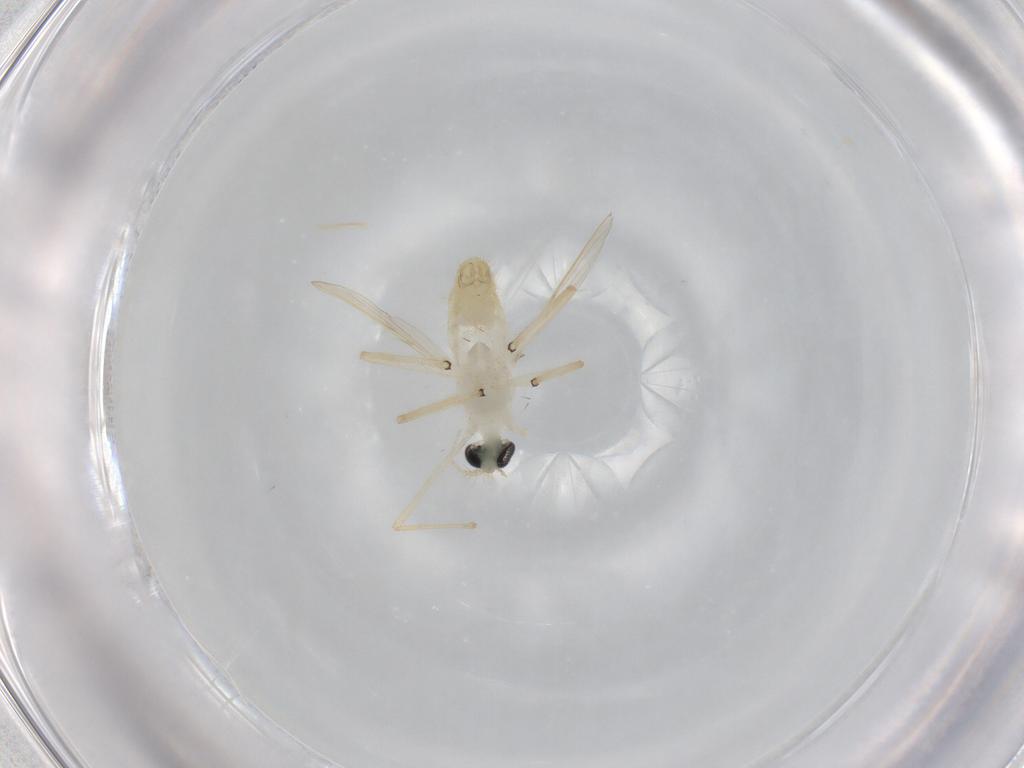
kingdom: Animalia
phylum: Arthropoda
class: Insecta
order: Diptera
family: Chironomidae
